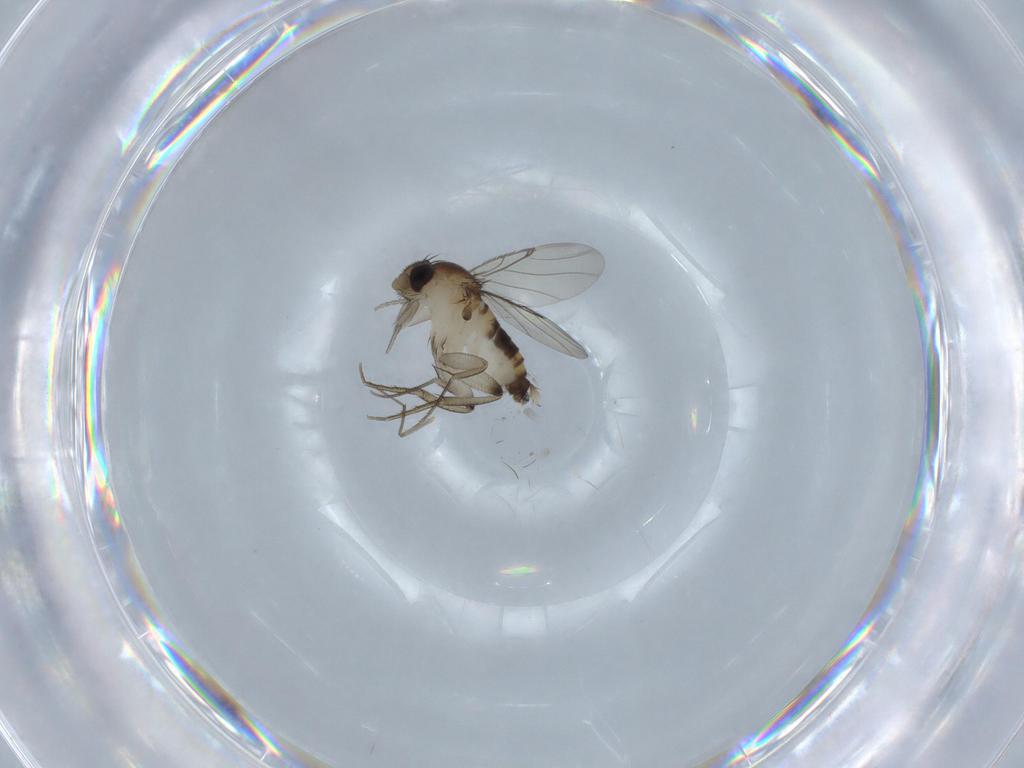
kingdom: Animalia
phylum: Arthropoda
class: Insecta
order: Diptera
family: Phoridae
